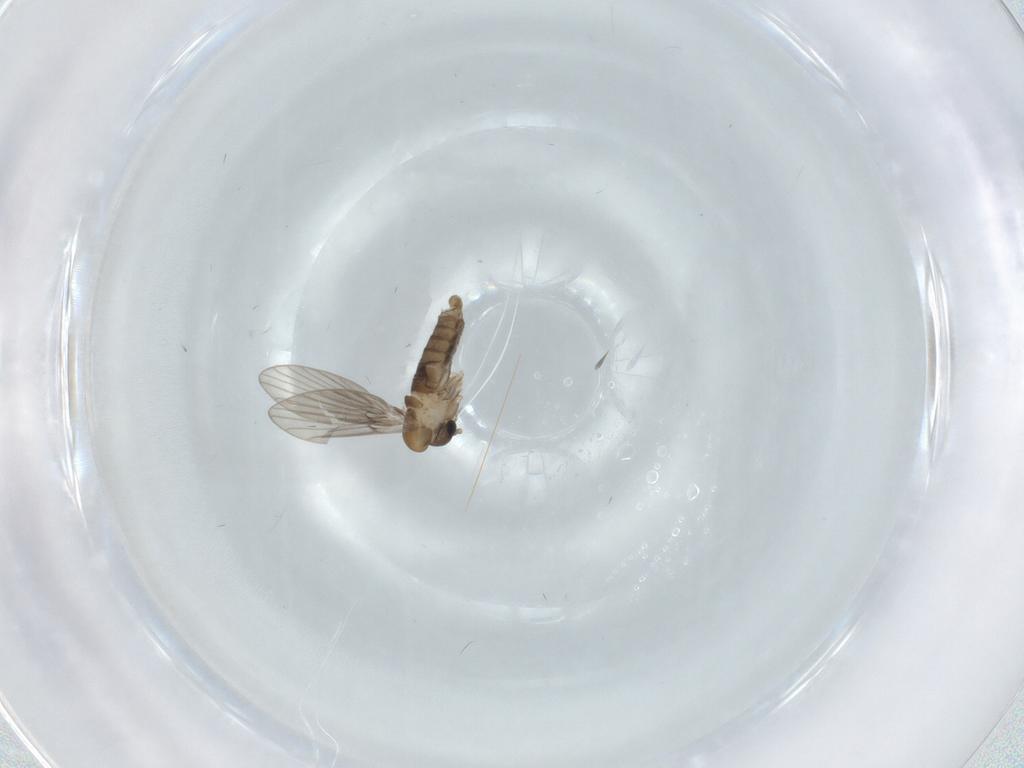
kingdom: Animalia
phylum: Arthropoda
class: Insecta
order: Diptera
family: Psychodidae
